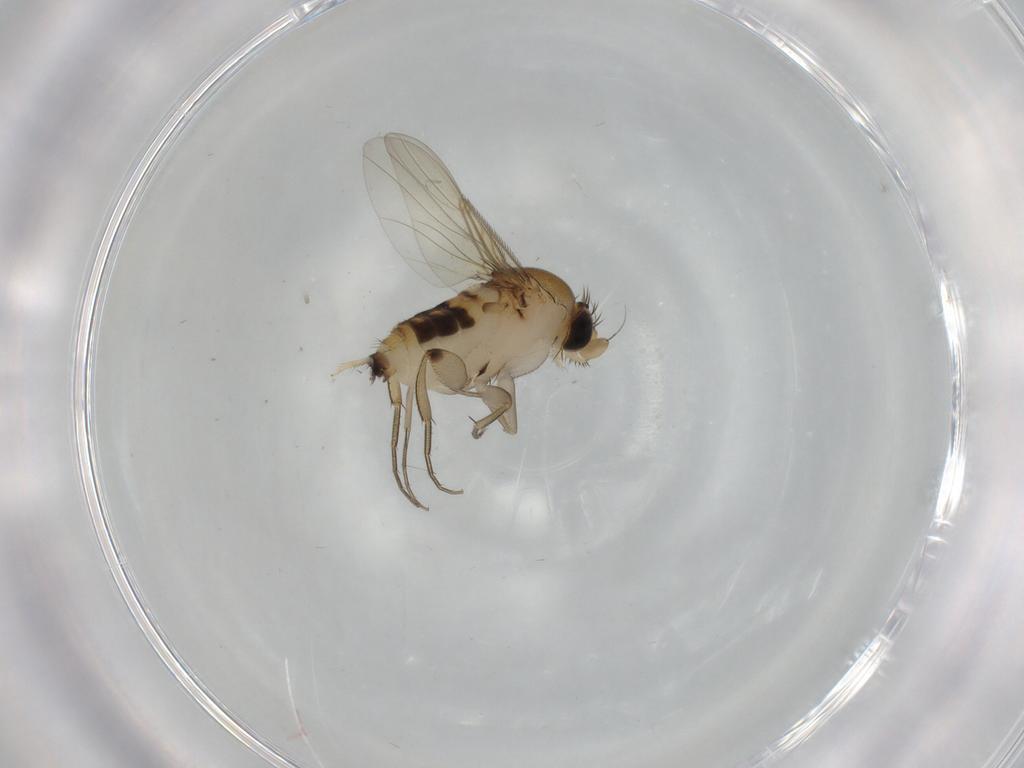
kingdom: Animalia
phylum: Arthropoda
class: Insecta
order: Diptera
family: Phoridae
